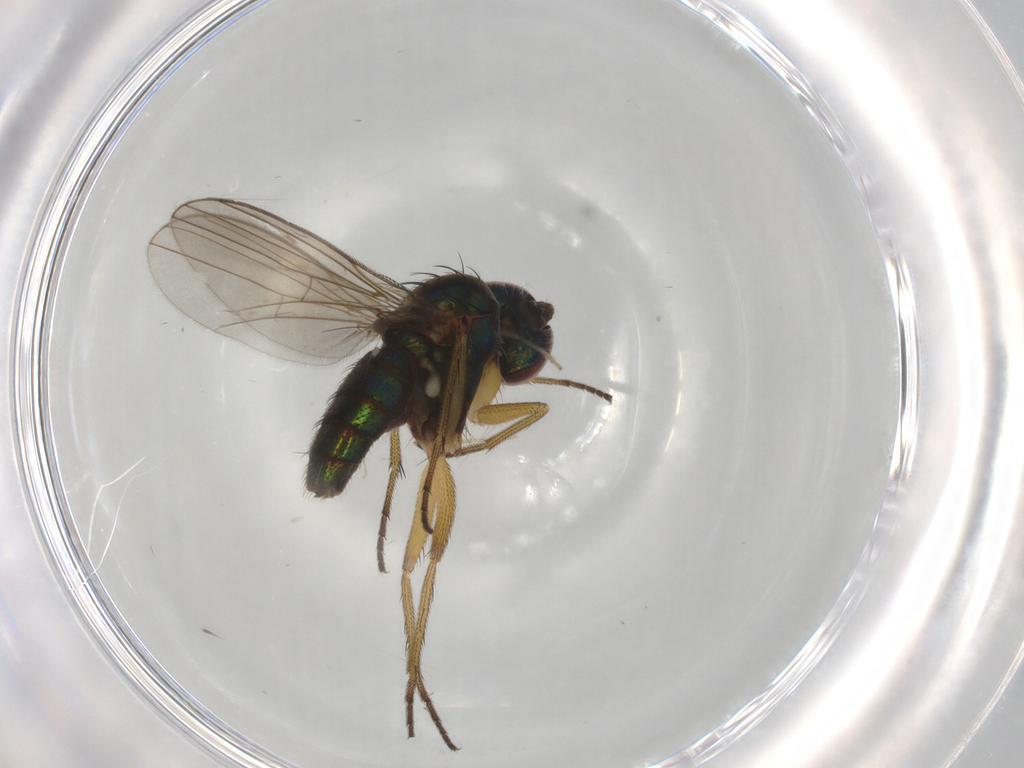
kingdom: Animalia
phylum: Arthropoda
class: Insecta
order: Diptera
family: Chironomidae
